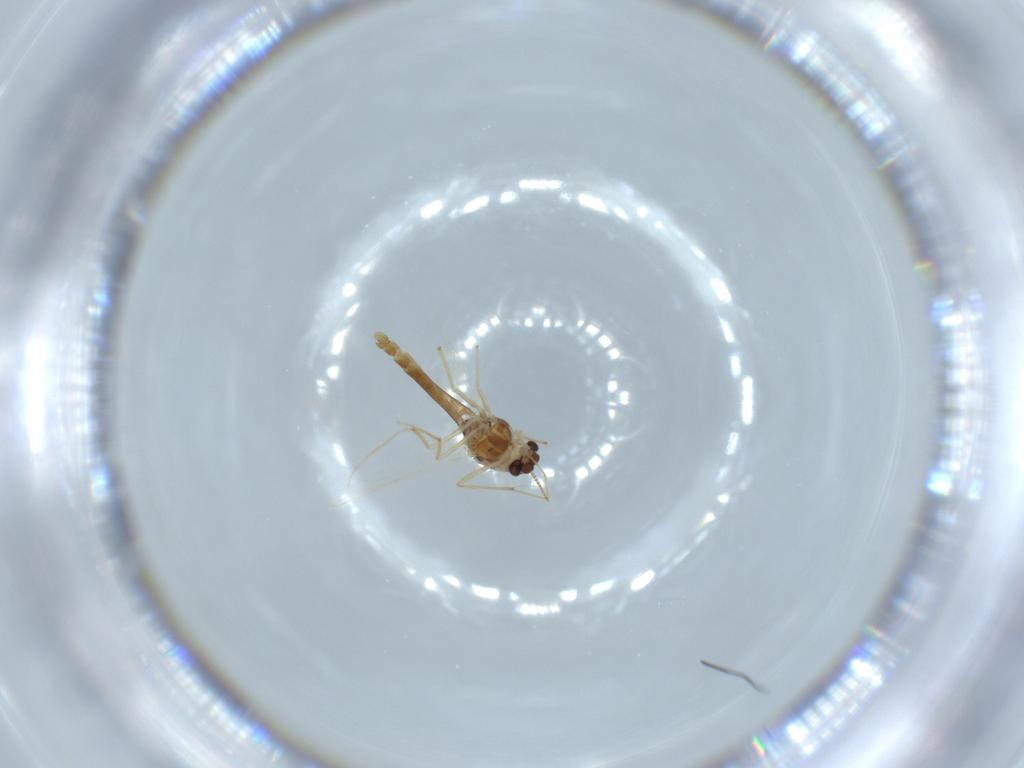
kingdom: Animalia
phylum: Arthropoda
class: Insecta
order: Diptera
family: Chironomidae
